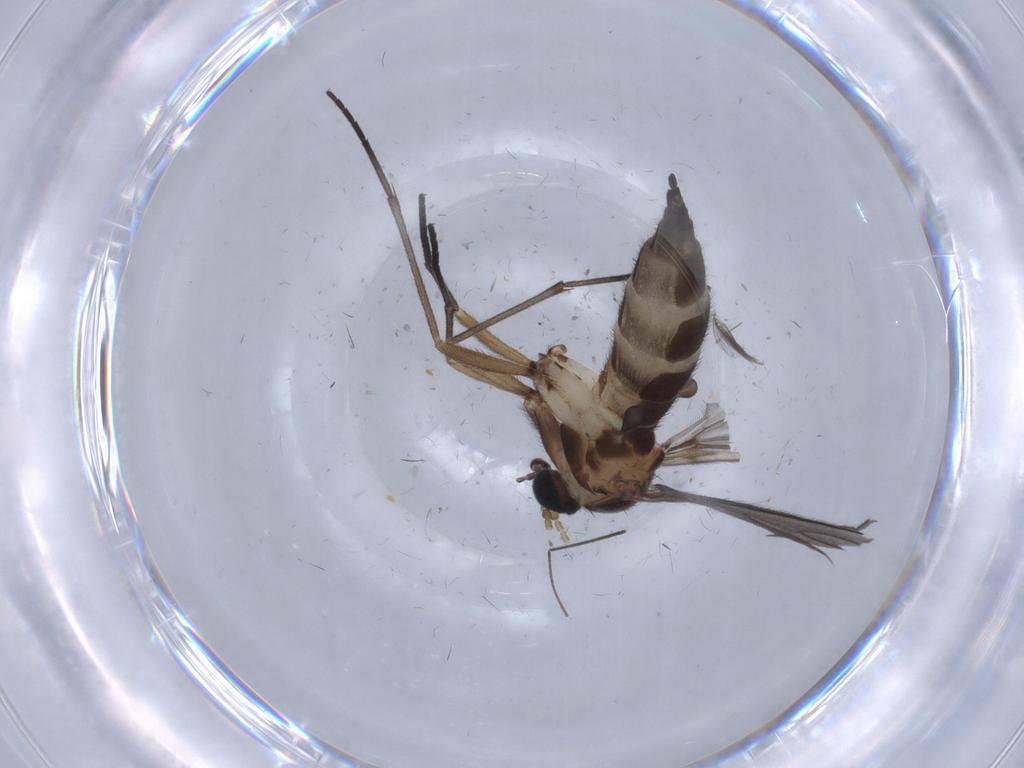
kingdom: Animalia
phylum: Arthropoda
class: Insecta
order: Diptera
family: Sciaridae
